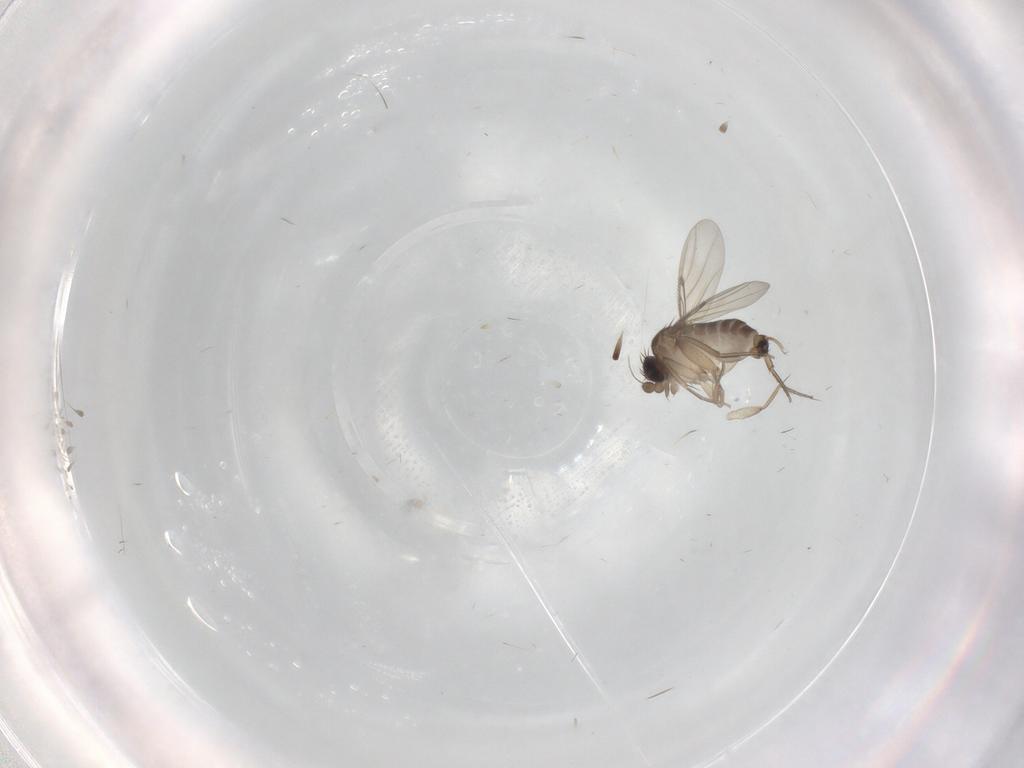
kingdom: Animalia
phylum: Arthropoda
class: Insecta
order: Diptera
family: Phoridae
